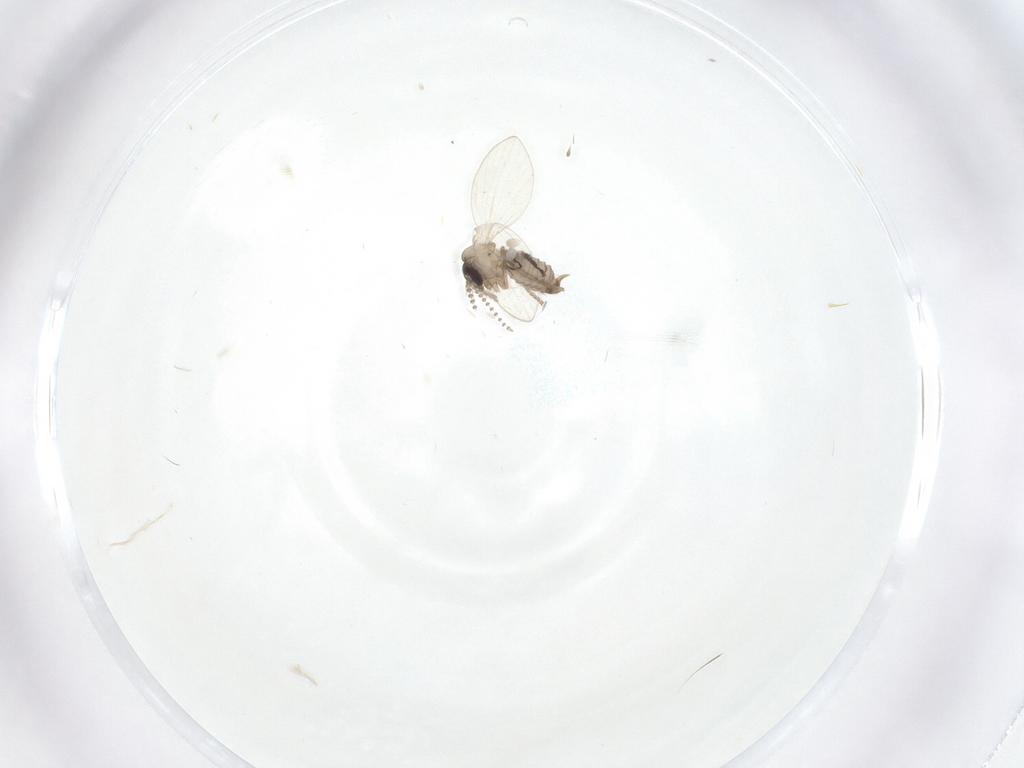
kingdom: Animalia
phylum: Arthropoda
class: Insecta
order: Diptera
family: Psychodidae
